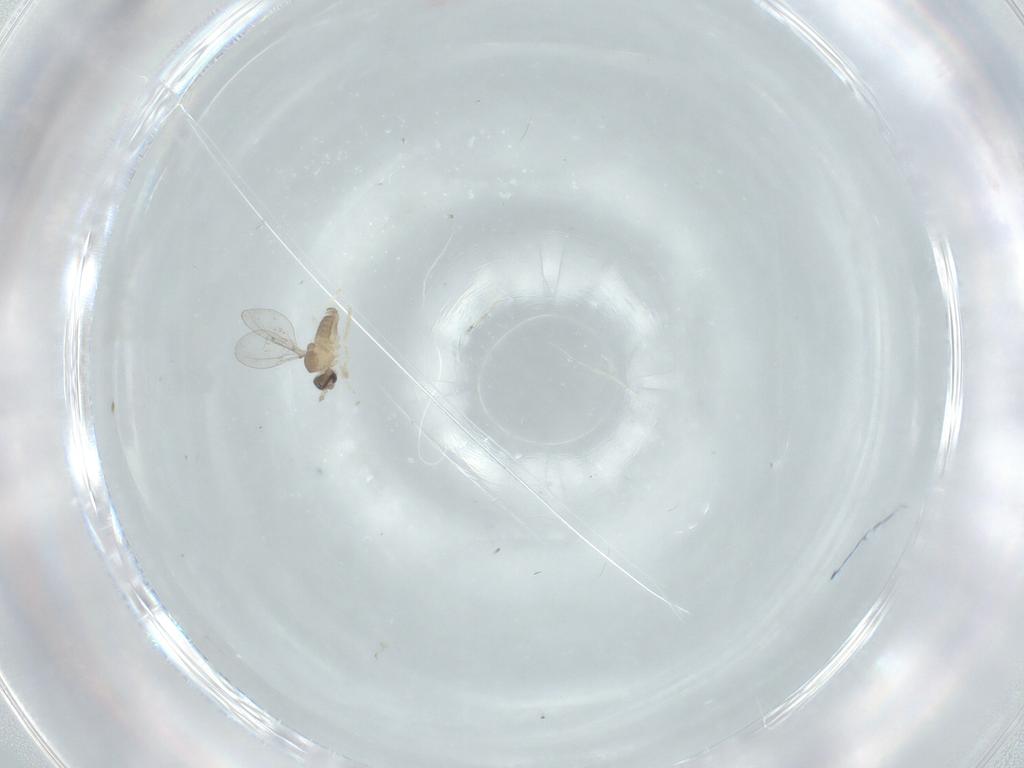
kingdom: Animalia
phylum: Arthropoda
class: Insecta
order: Diptera
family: Cecidomyiidae
